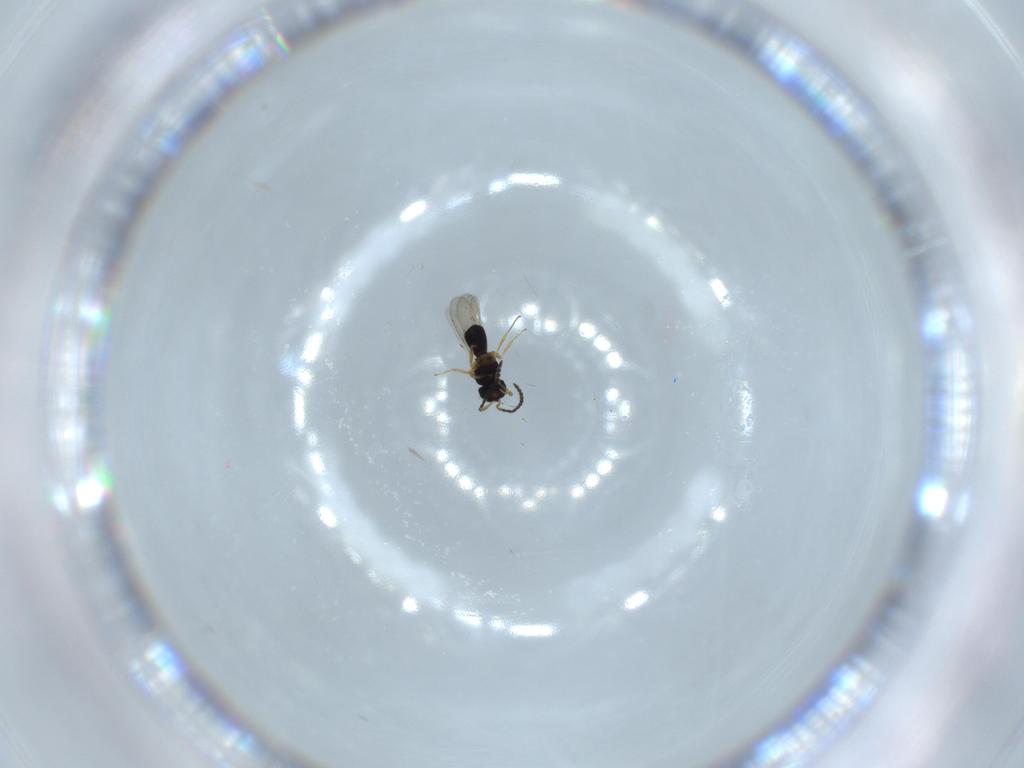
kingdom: Animalia
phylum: Arthropoda
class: Insecta
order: Hymenoptera
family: Scelionidae
